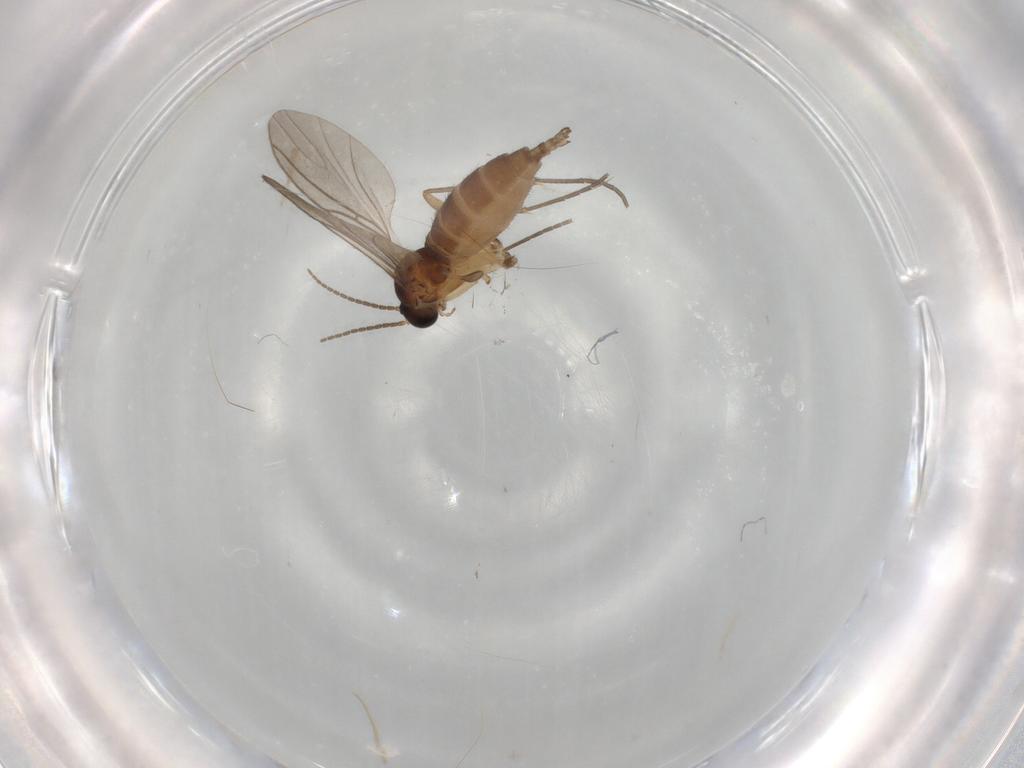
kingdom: Animalia
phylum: Arthropoda
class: Insecta
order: Diptera
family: Sciaridae
